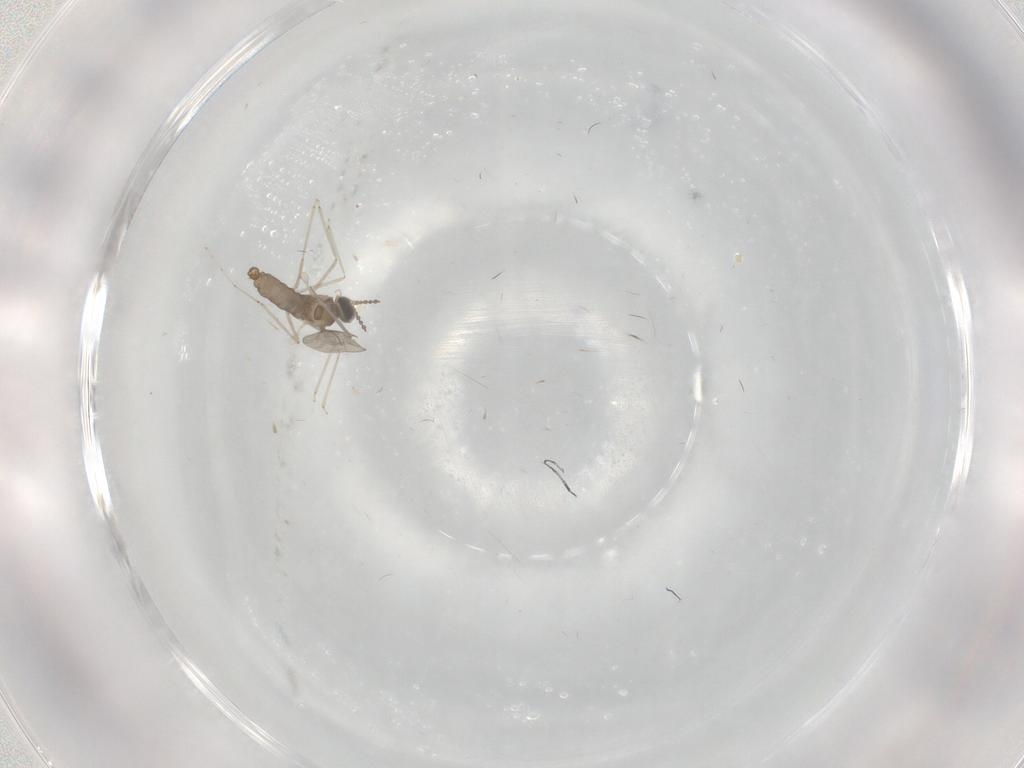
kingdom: Animalia
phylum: Arthropoda
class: Insecta
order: Diptera
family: Cecidomyiidae
